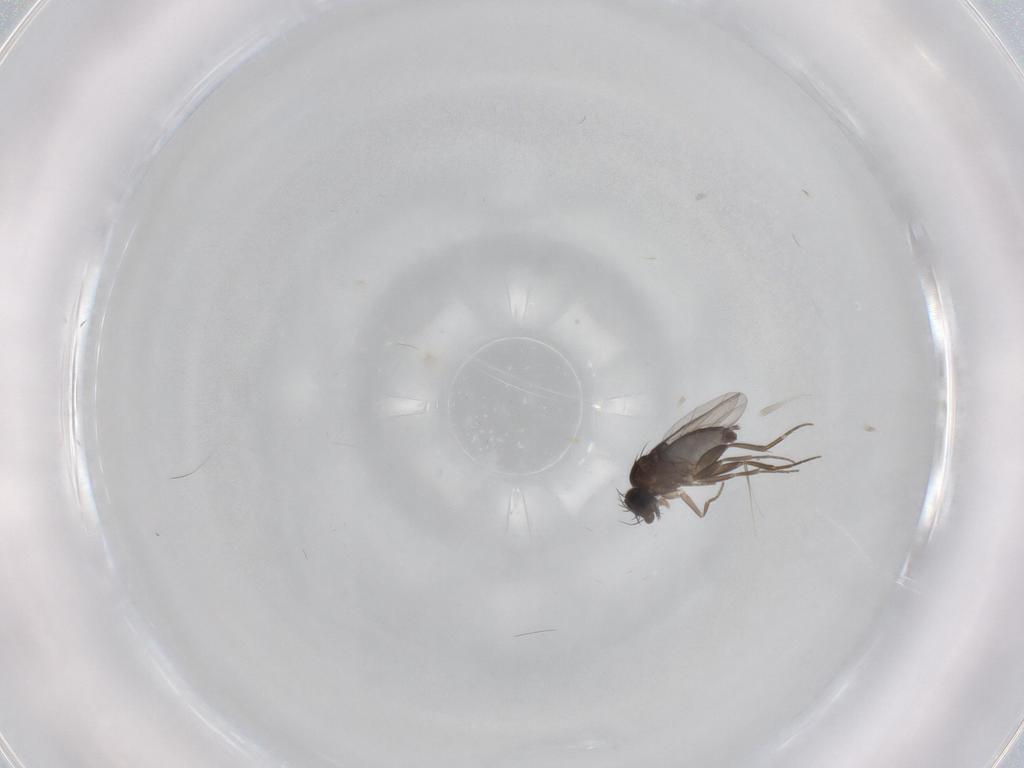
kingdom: Animalia
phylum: Arthropoda
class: Insecta
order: Diptera
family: Phoridae
